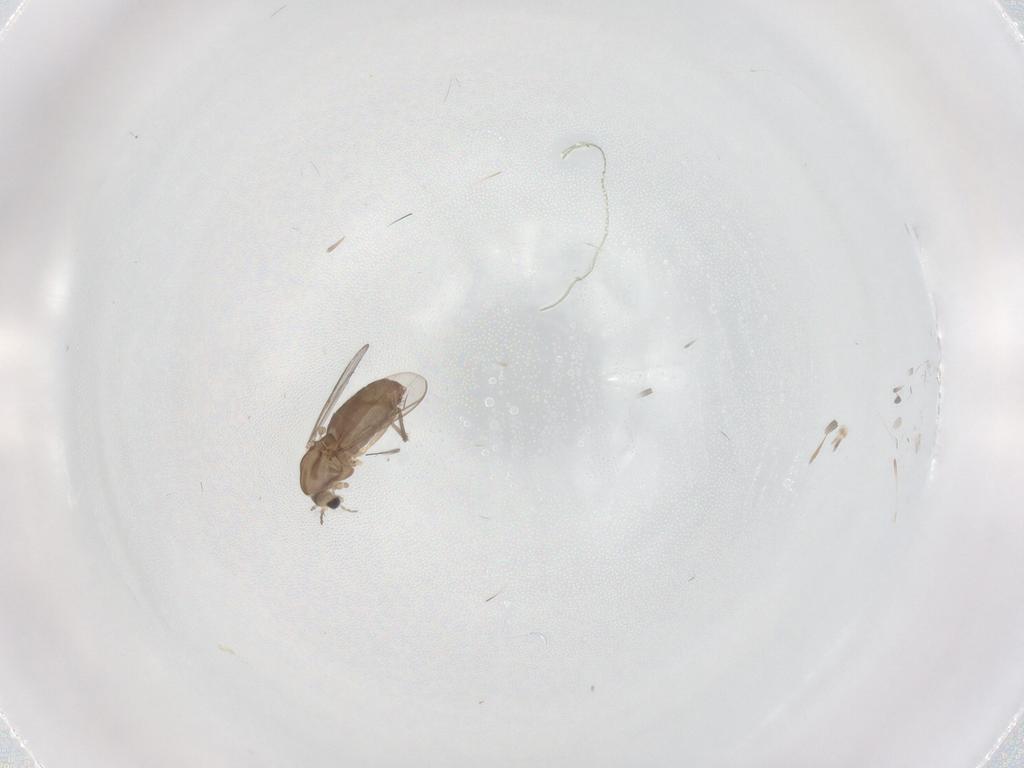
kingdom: Animalia
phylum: Arthropoda
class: Insecta
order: Diptera
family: Chironomidae
